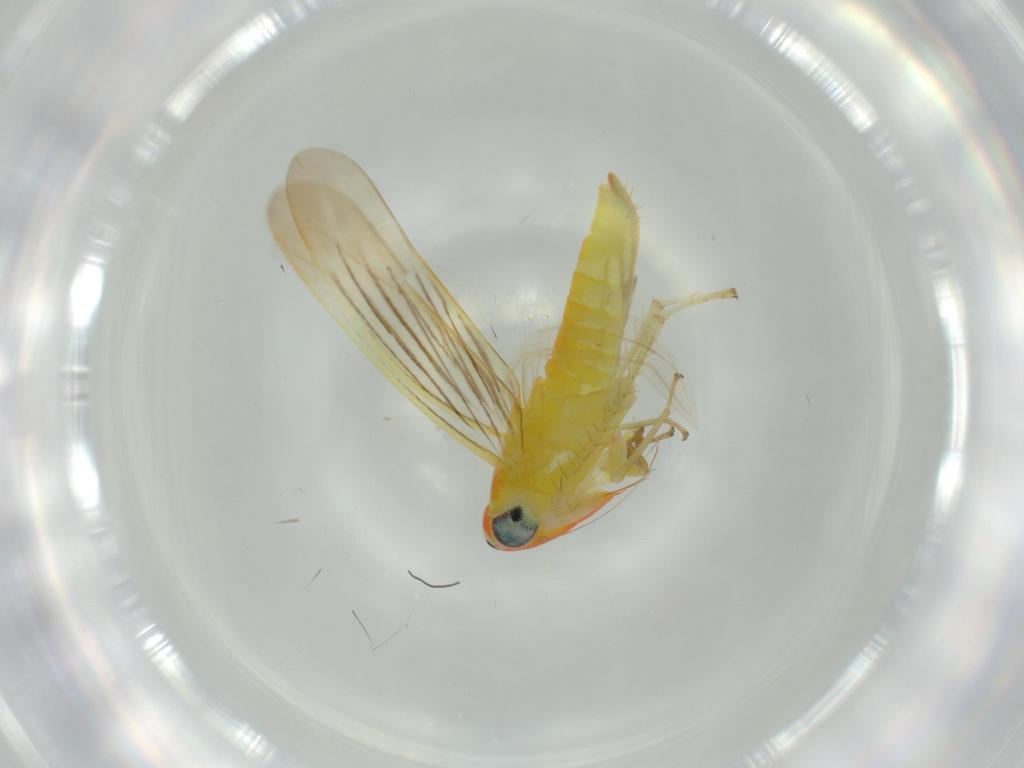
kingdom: Animalia
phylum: Arthropoda
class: Insecta
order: Hemiptera
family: Cicadellidae
